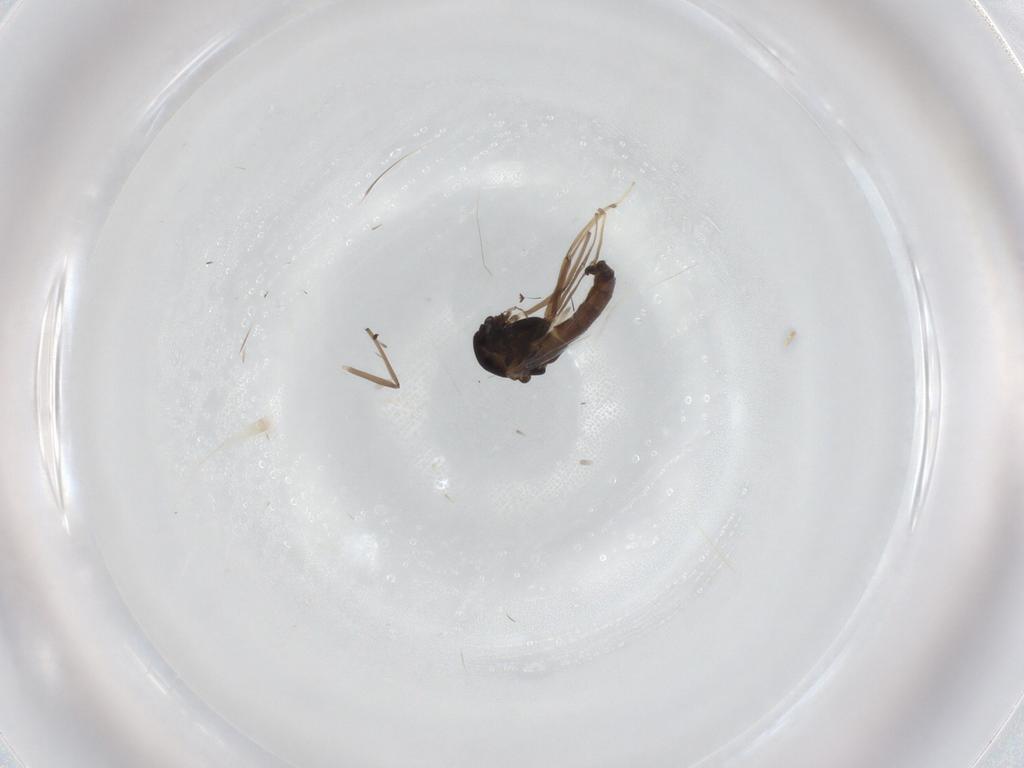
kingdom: Animalia
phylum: Arthropoda
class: Insecta
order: Diptera
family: Chironomidae
